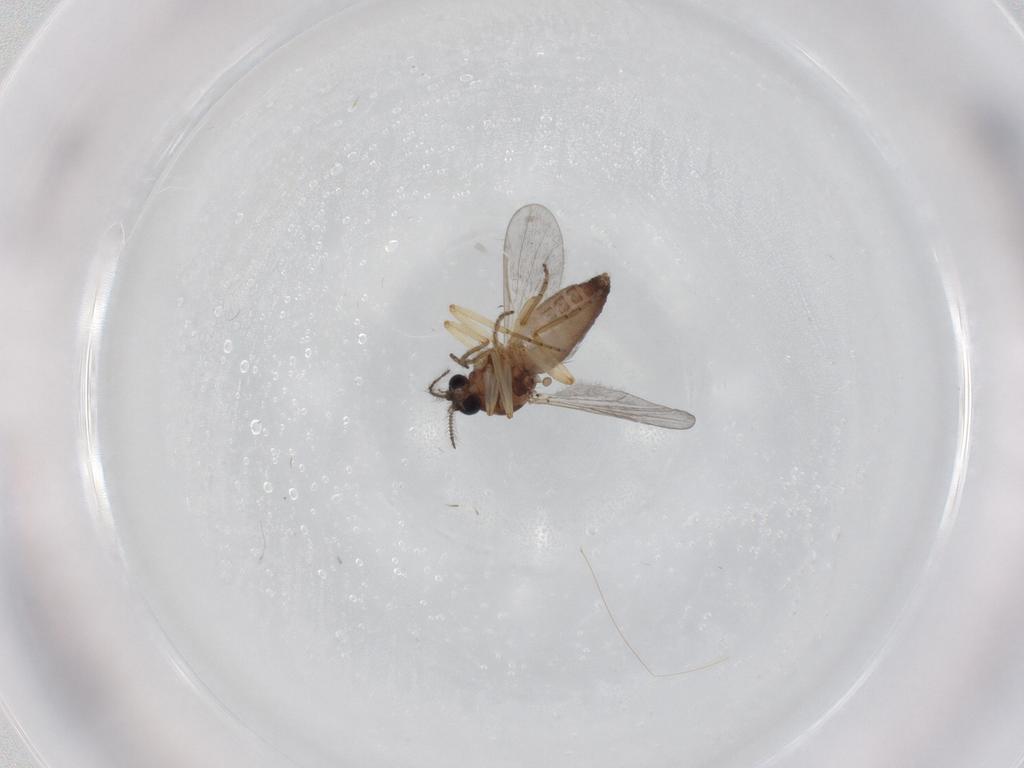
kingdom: Animalia
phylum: Arthropoda
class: Insecta
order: Diptera
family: Ceratopogonidae
